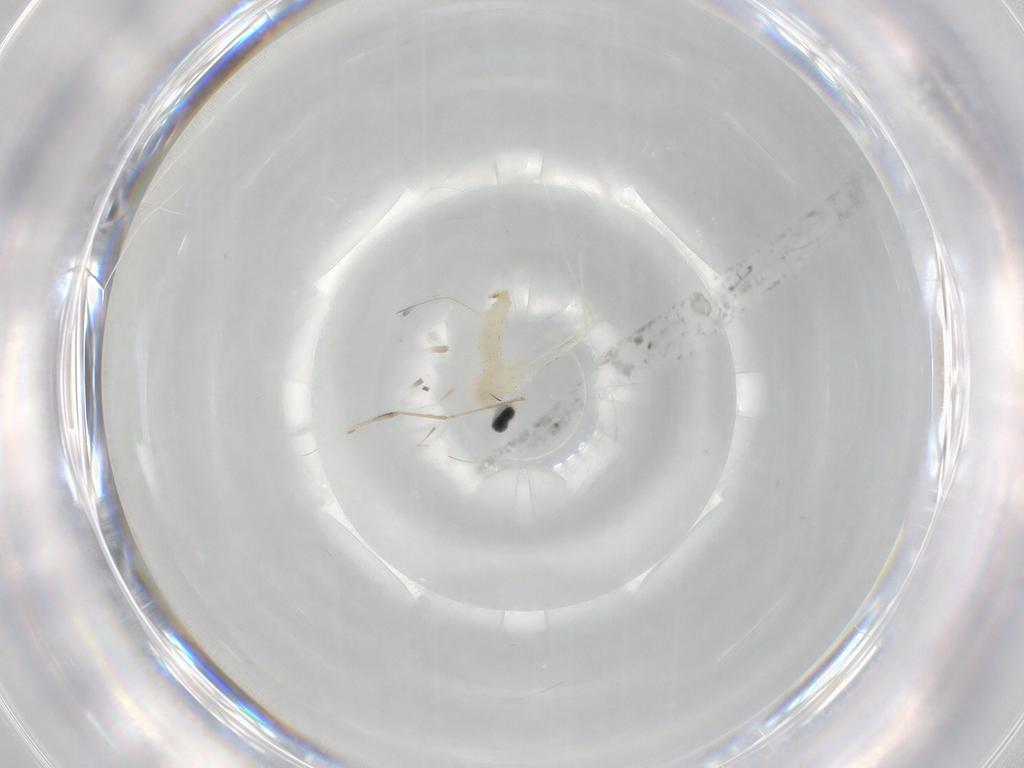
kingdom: Animalia
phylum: Arthropoda
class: Insecta
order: Diptera
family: Cecidomyiidae
